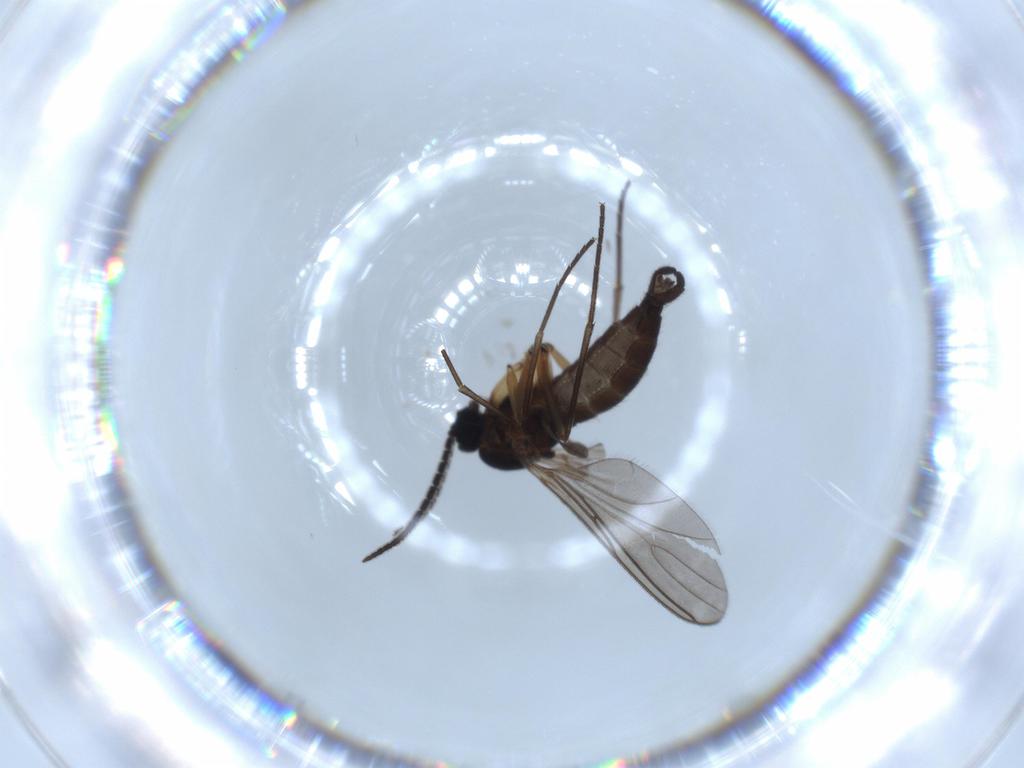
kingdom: Animalia
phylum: Arthropoda
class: Insecta
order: Diptera
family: Sciaridae
